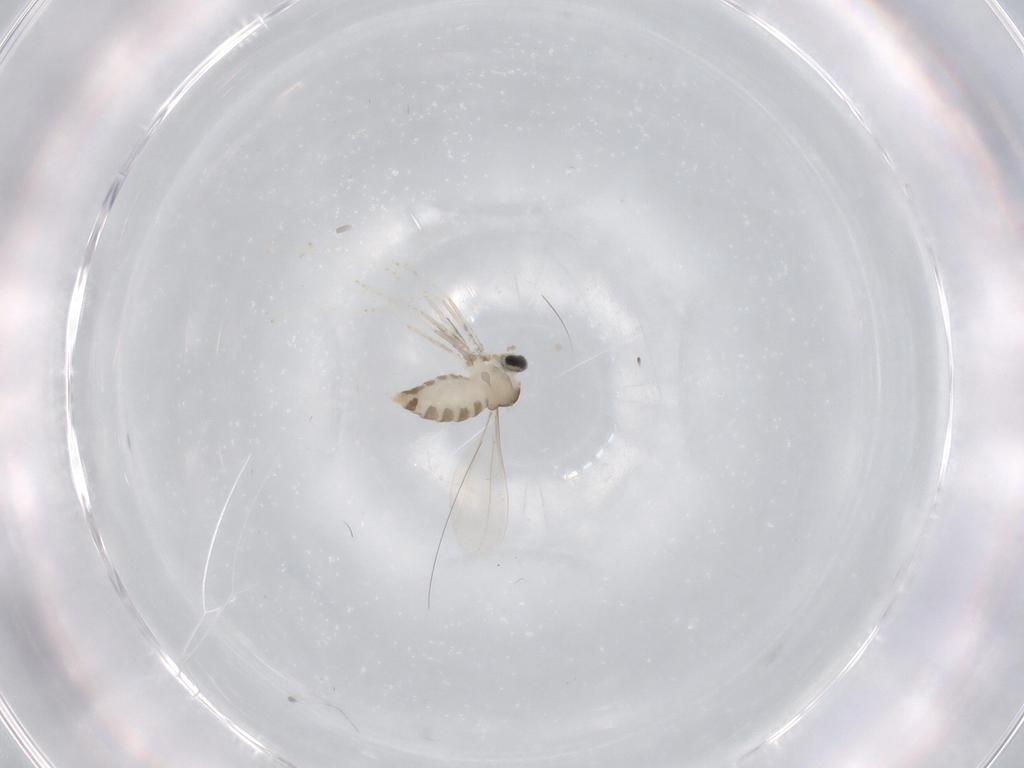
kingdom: Animalia
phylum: Arthropoda
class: Insecta
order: Diptera
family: Cecidomyiidae
